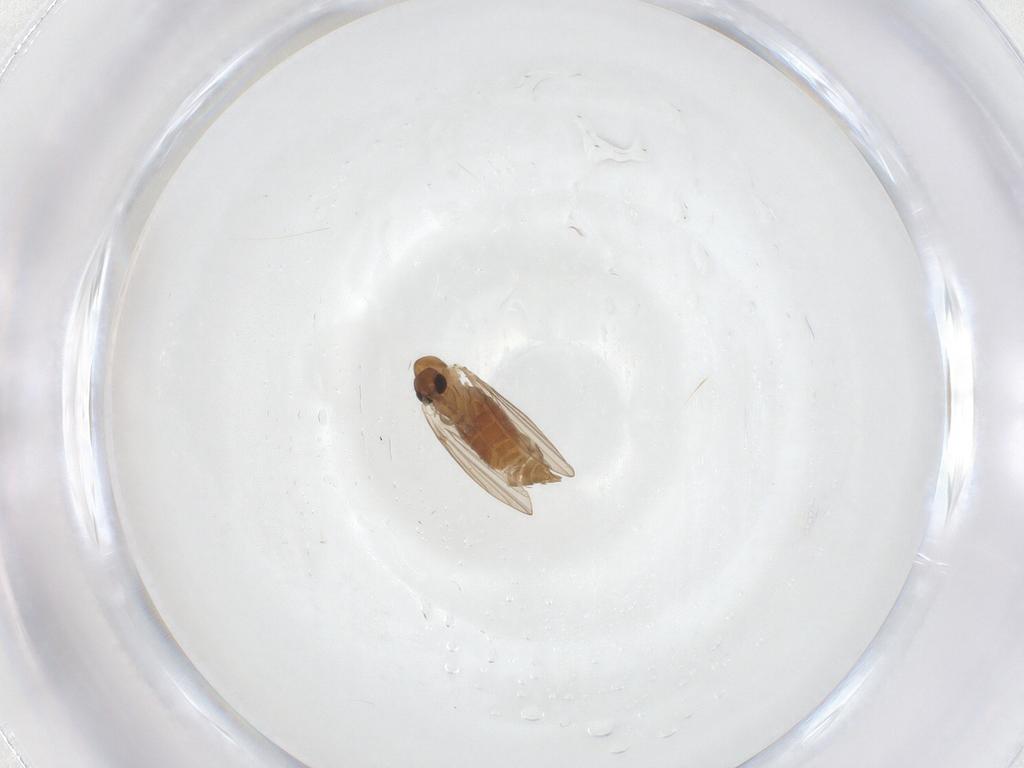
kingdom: Animalia
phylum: Arthropoda
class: Insecta
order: Diptera
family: Syrphidae
